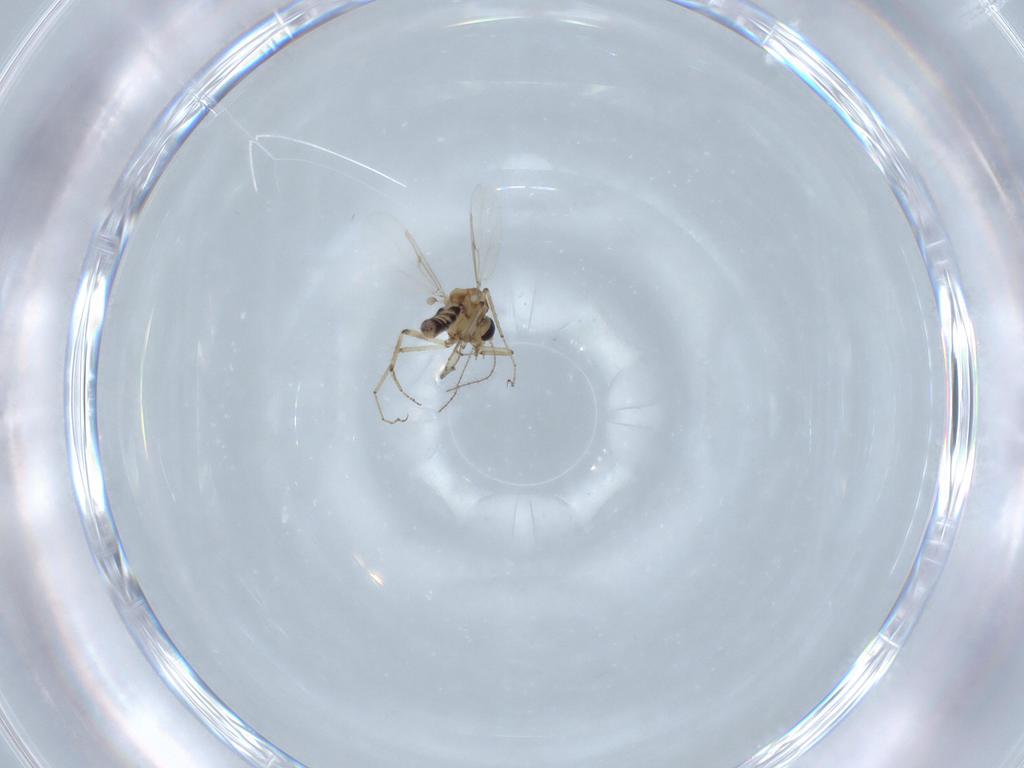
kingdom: Animalia
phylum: Arthropoda
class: Insecta
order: Diptera
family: Ceratopogonidae
